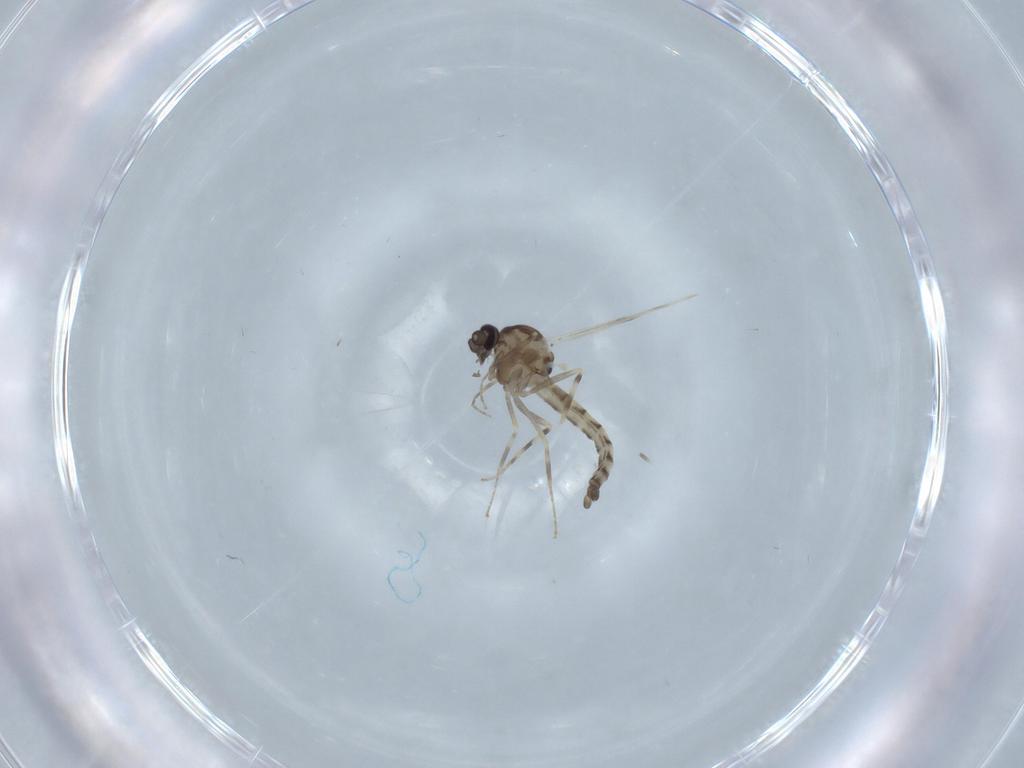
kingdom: Animalia
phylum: Arthropoda
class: Insecta
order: Diptera
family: Ceratopogonidae
